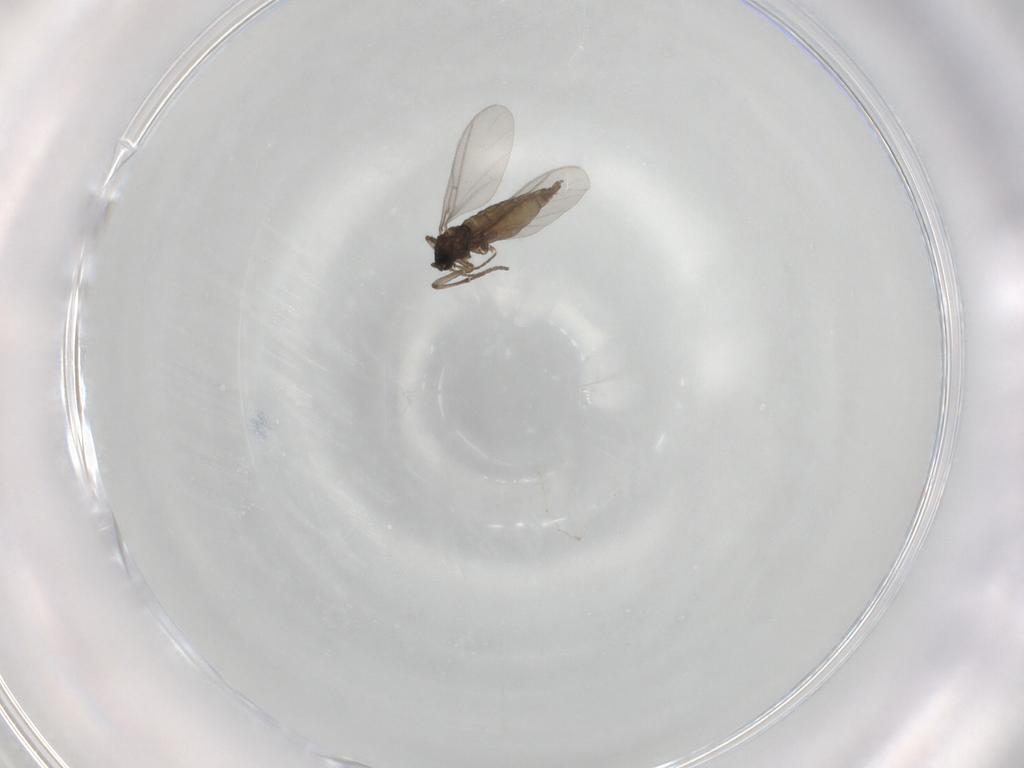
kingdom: Animalia
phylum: Arthropoda
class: Insecta
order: Diptera
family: Sciaridae
